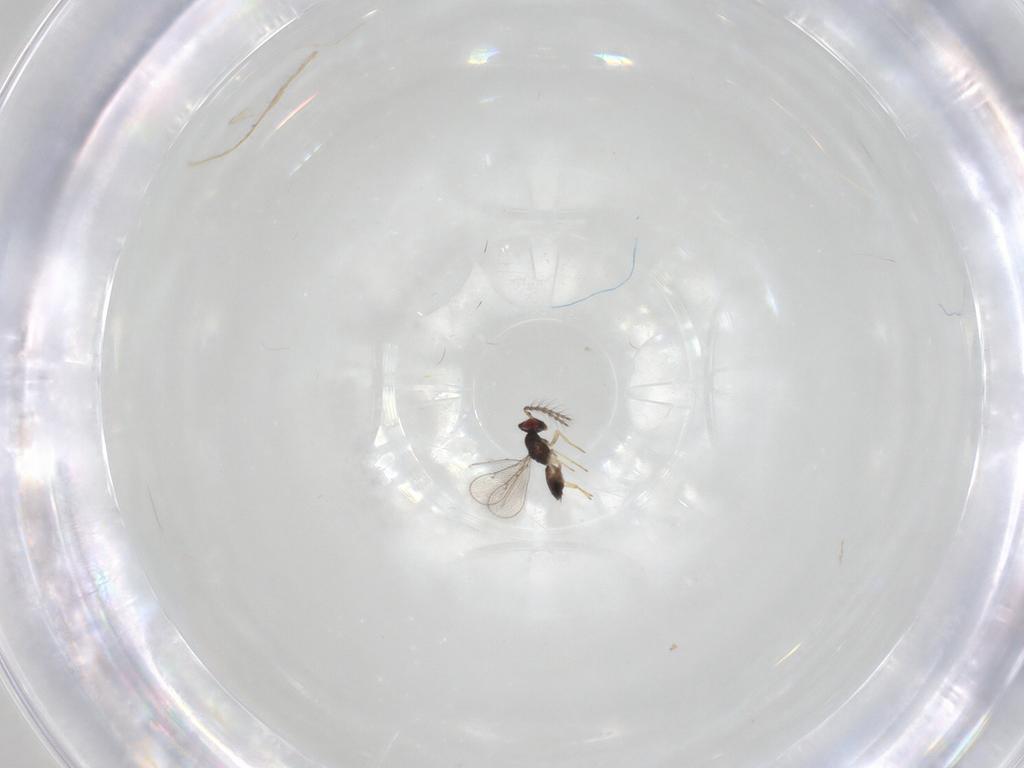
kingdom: Animalia
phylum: Arthropoda
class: Insecta
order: Hymenoptera
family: Eulophidae
